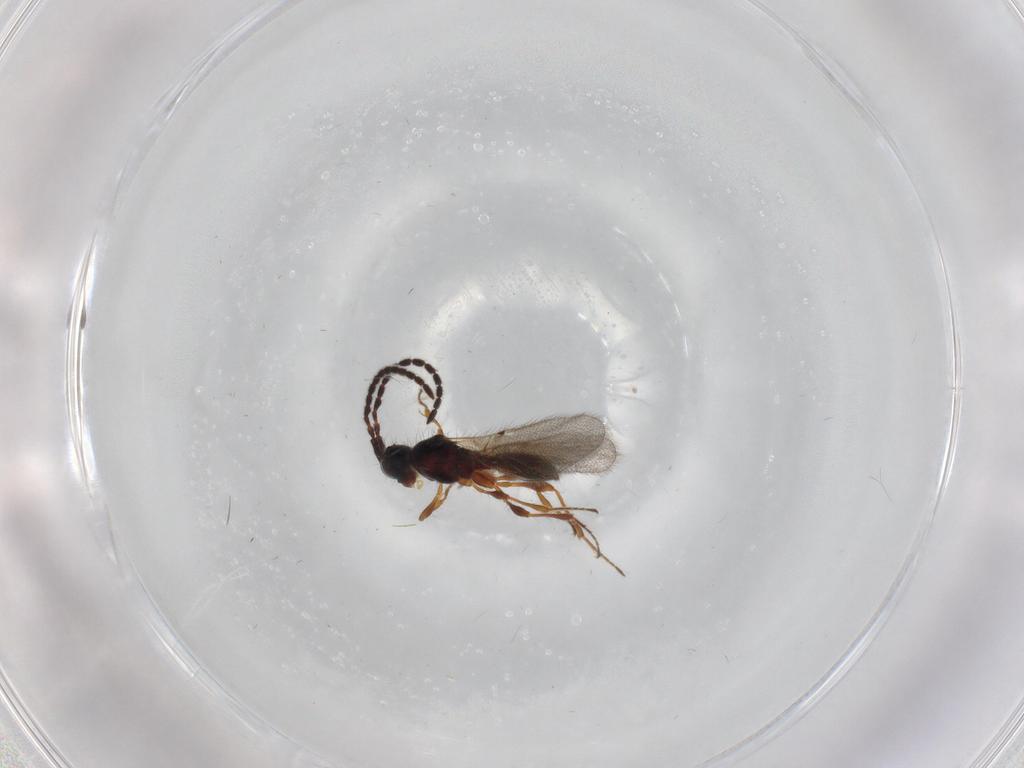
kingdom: Animalia
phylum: Arthropoda
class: Insecta
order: Hymenoptera
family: Diapriidae
